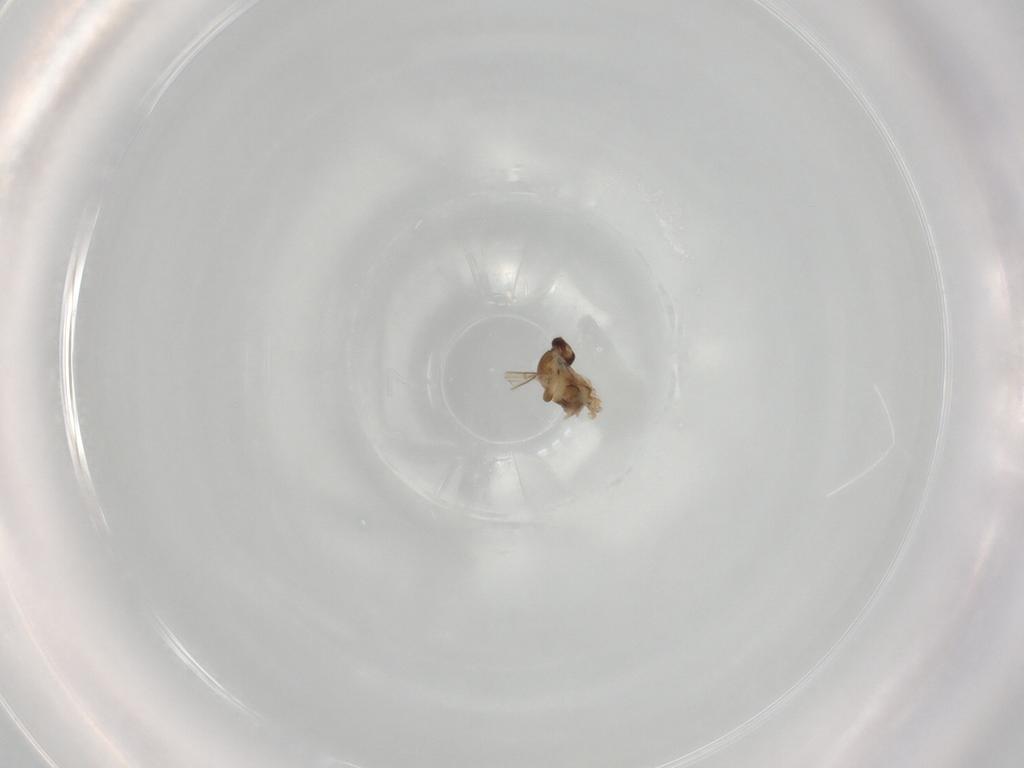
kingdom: Animalia
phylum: Arthropoda
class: Insecta
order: Diptera
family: Cecidomyiidae
